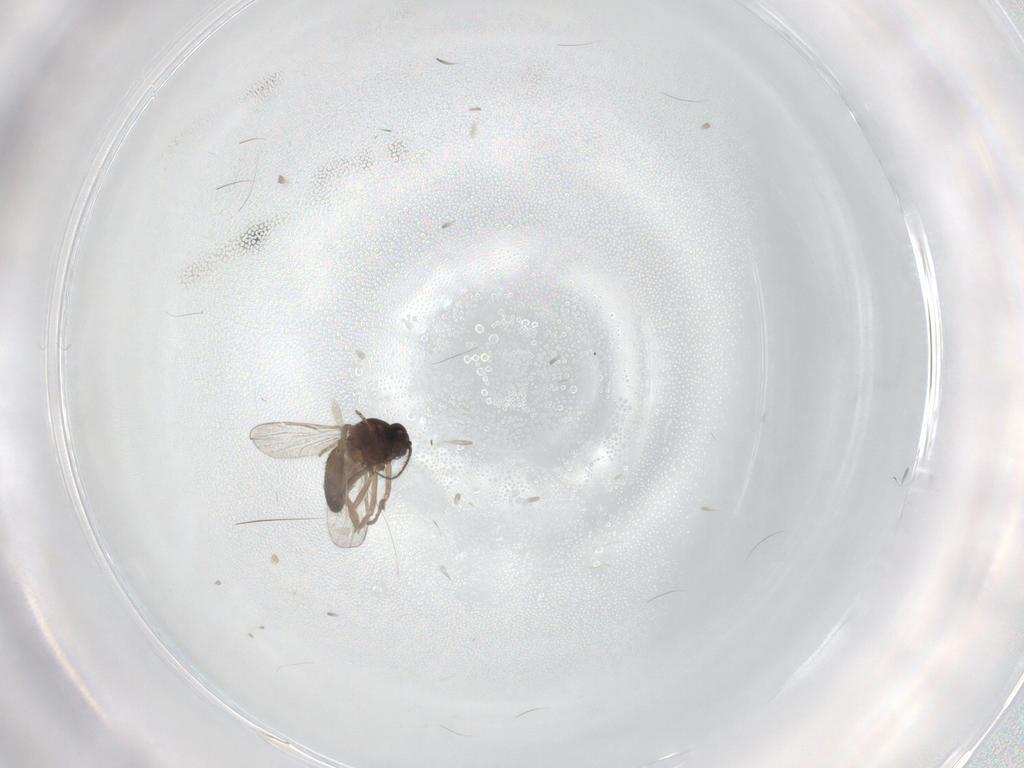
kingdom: Animalia
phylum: Arthropoda
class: Insecta
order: Diptera
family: Ceratopogonidae
